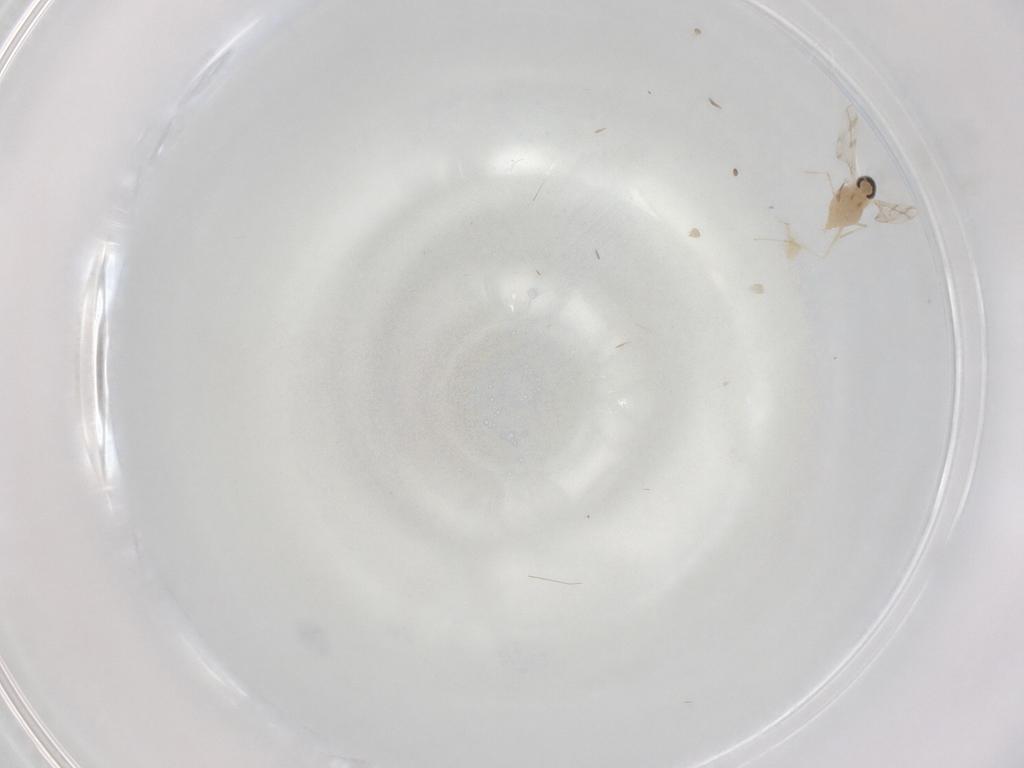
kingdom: Animalia
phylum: Arthropoda
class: Insecta
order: Diptera
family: Ceratopogonidae
